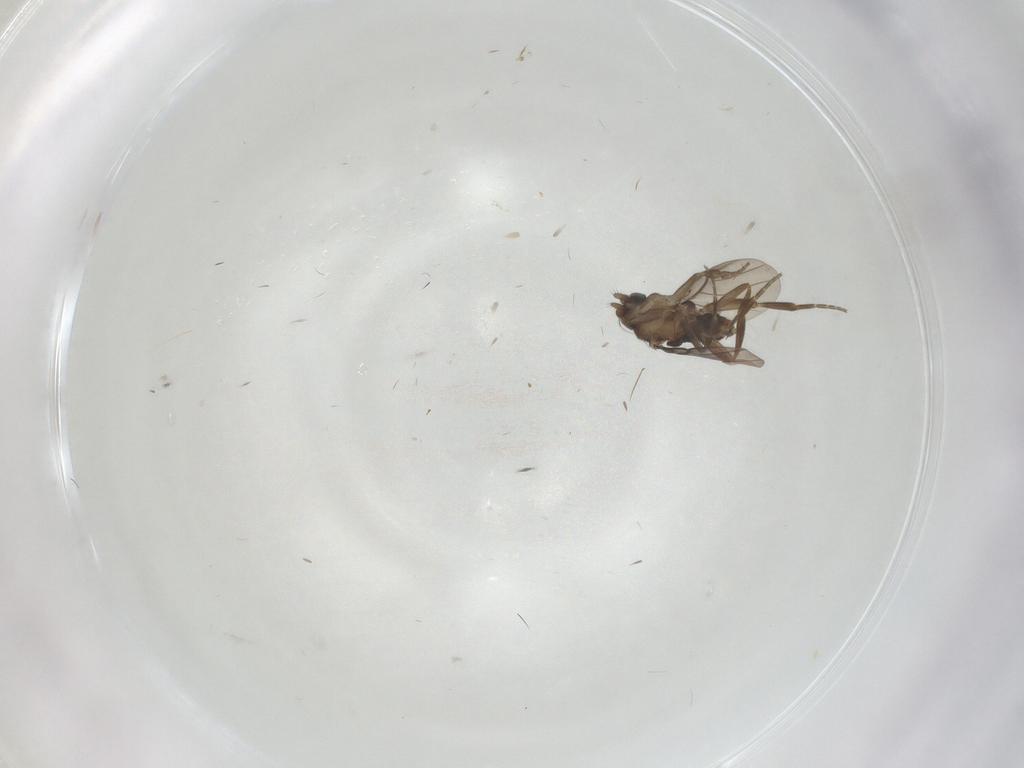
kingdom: Animalia
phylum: Arthropoda
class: Insecta
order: Diptera
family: Cecidomyiidae
